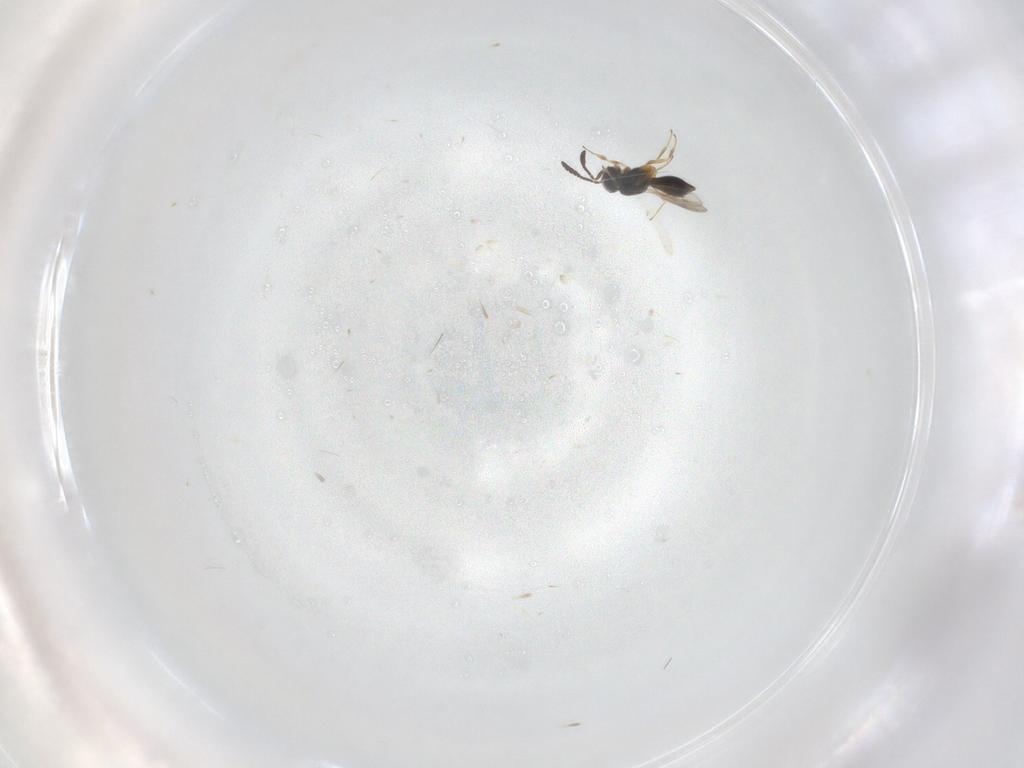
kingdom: Animalia
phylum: Arthropoda
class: Insecta
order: Hymenoptera
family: Scelionidae
